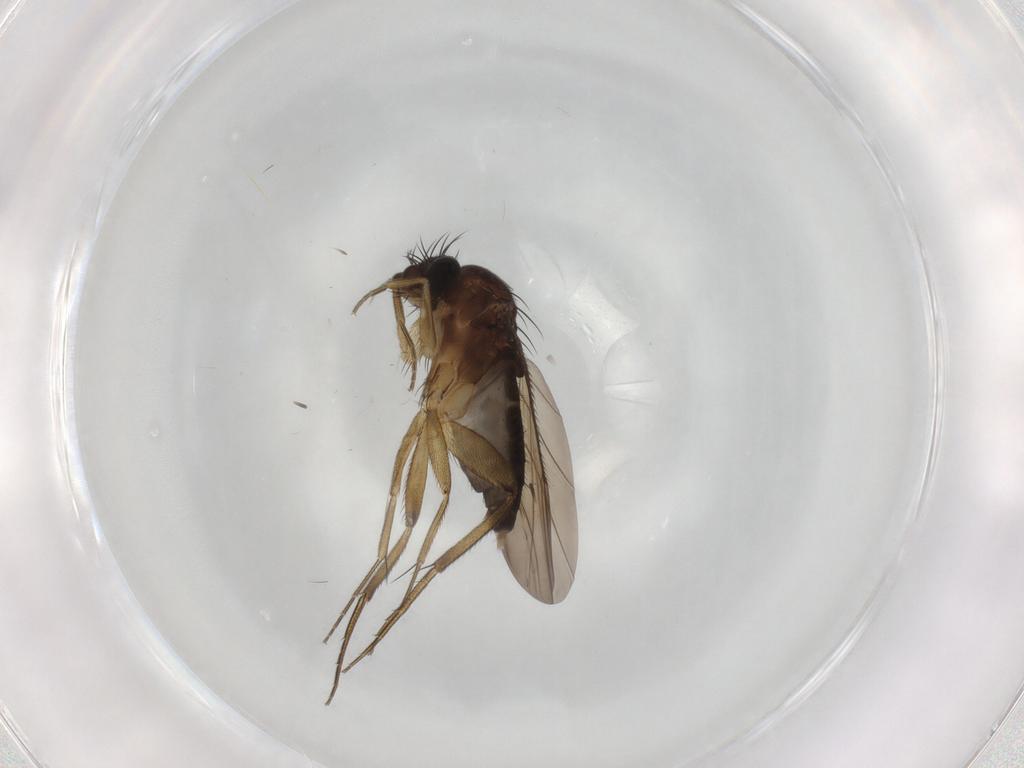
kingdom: Animalia
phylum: Arthropoda
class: Insecta
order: Diptera
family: Phoridae
